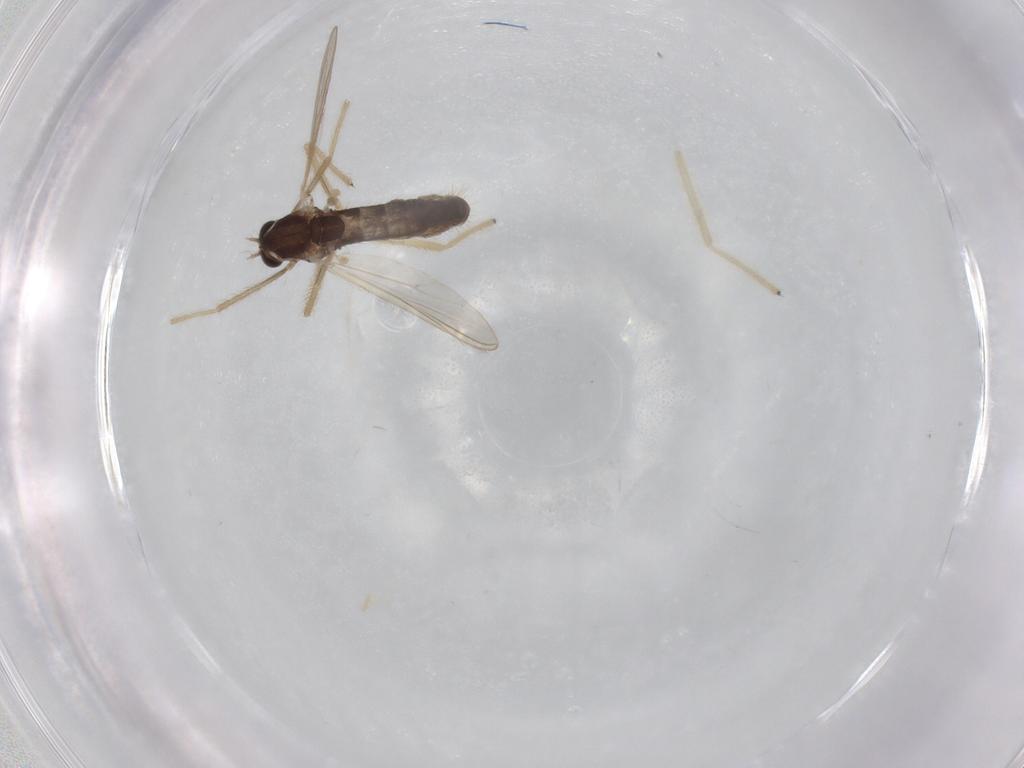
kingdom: Animalia
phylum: Arthropoda
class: Insecta
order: Diptera
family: Chironomidae
